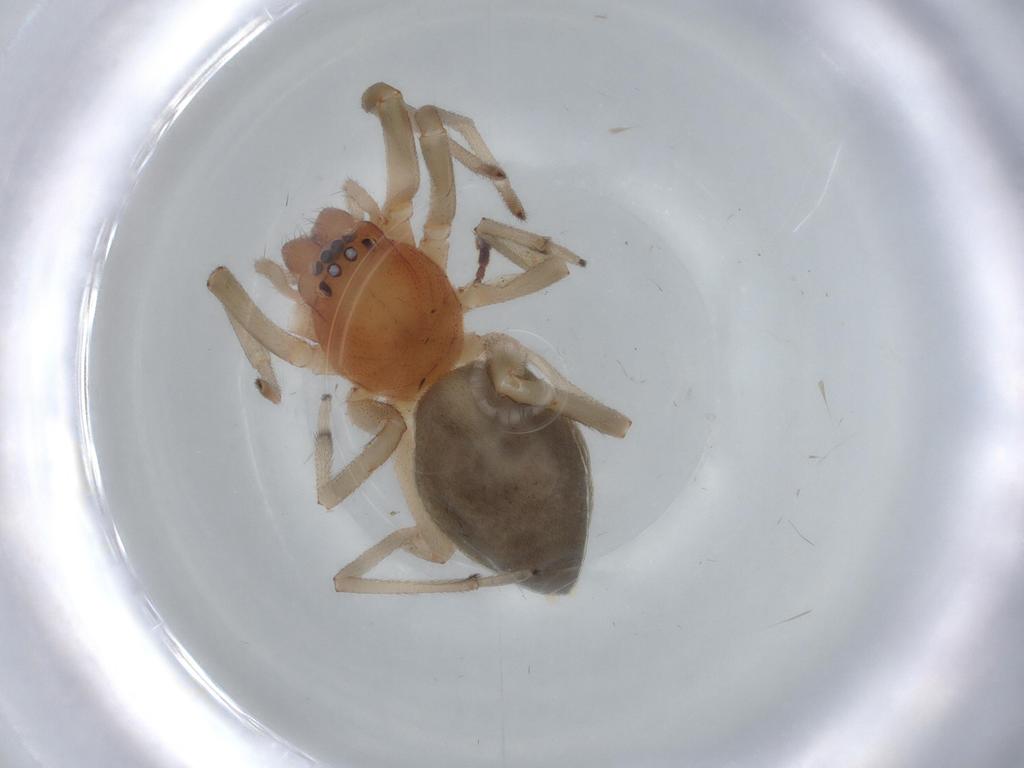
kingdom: Animalia
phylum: Arthropoda
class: Arachnida
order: Araneae
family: Trachelidae
